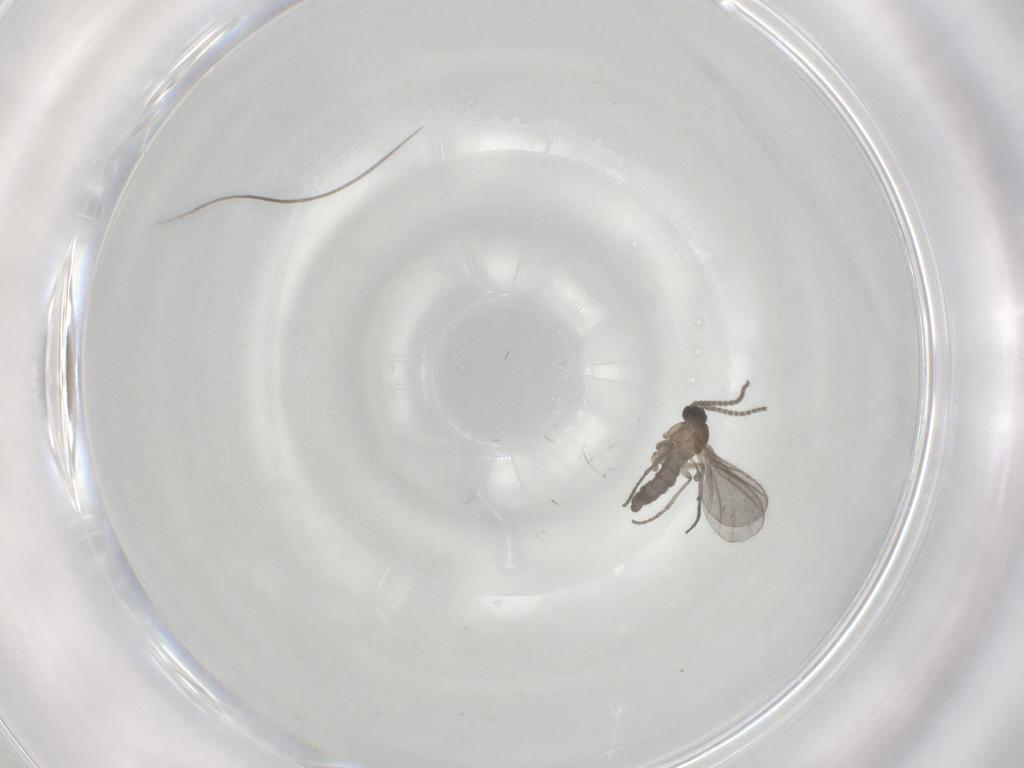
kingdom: Animalia
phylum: Arthropoda
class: Insecta
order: Diptera
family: Sciaridae
